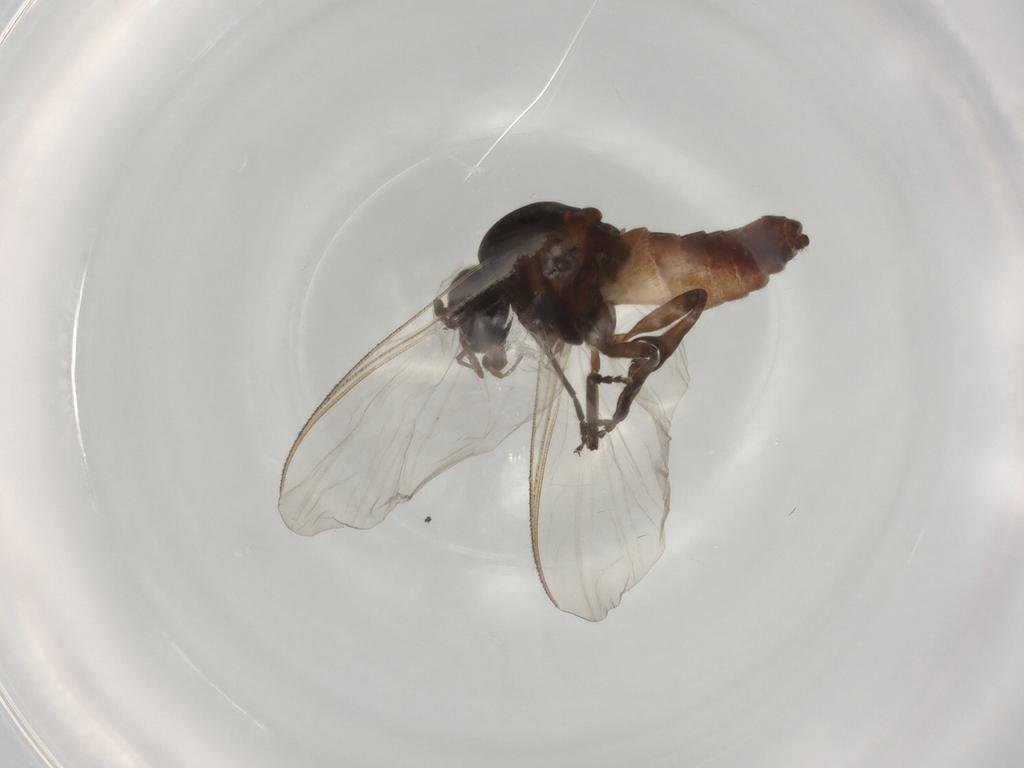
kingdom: Animalia
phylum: Arthropoda
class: Insecta
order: Diptera
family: Simuliidae
